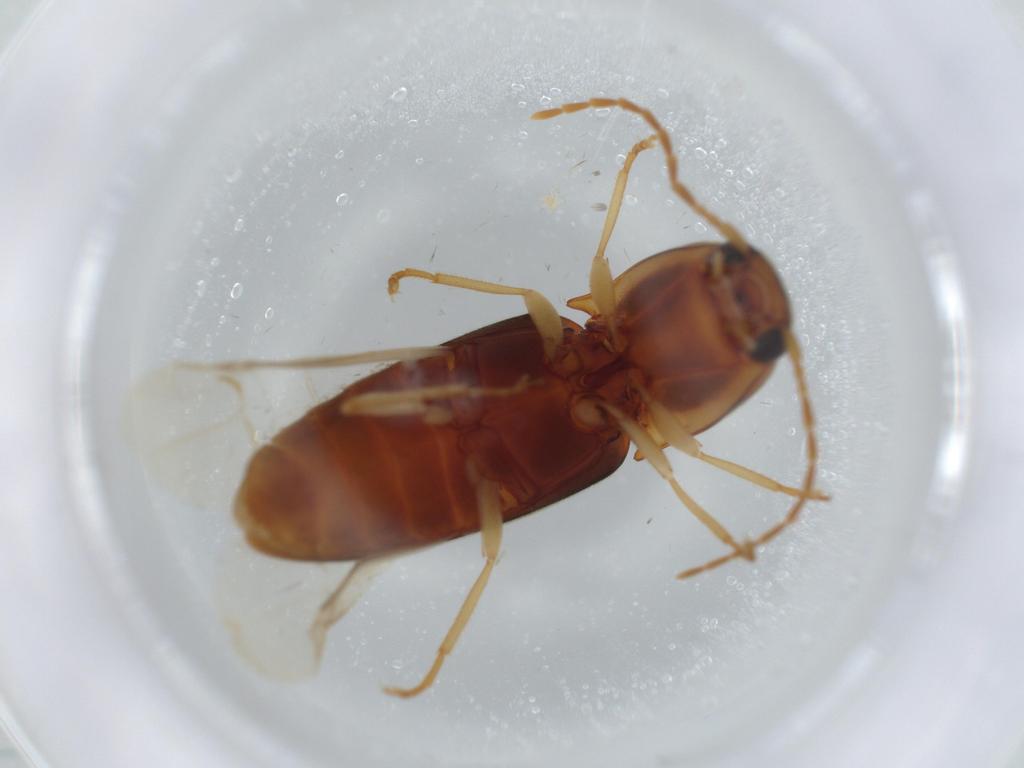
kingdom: Animalia
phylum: Arthropoda
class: Insecta
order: Coleoptera
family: Elateridae
